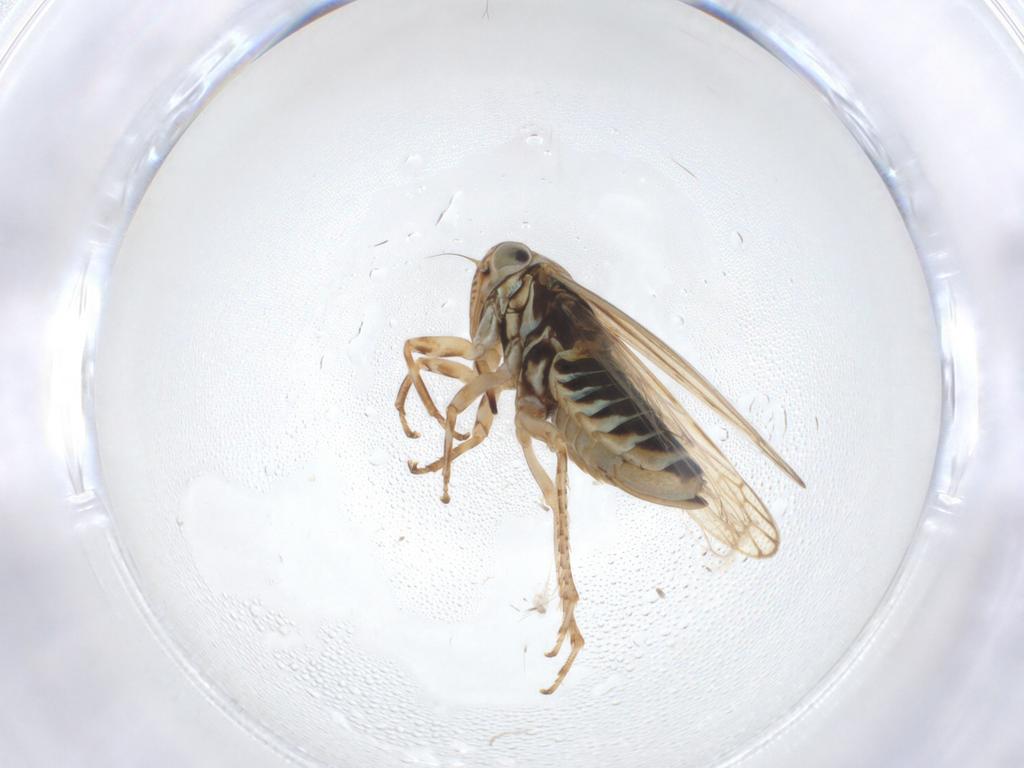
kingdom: Animalia
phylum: Arthropoda
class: Insecta
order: Hemiptera
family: Cicadellidae
